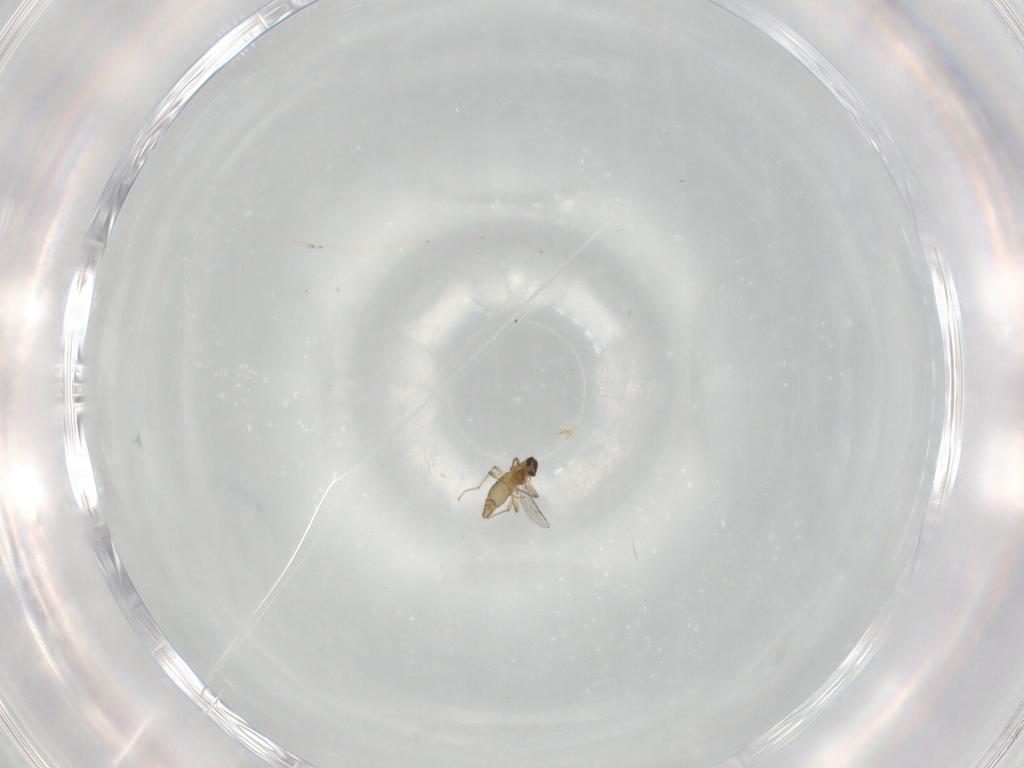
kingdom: Animalia
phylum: Arthropoda
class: Insecta
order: Diptera
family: Chironomidae
